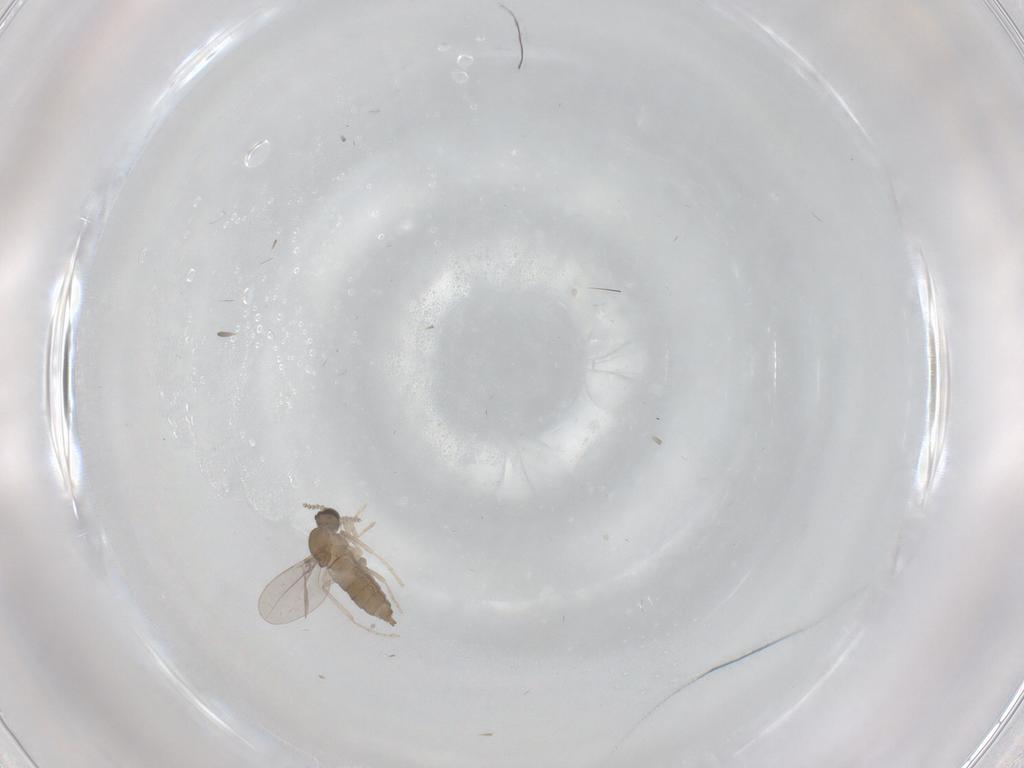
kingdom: Animalia
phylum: Arthropoda
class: Insecta
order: Diptera
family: Cecidomyiidae
